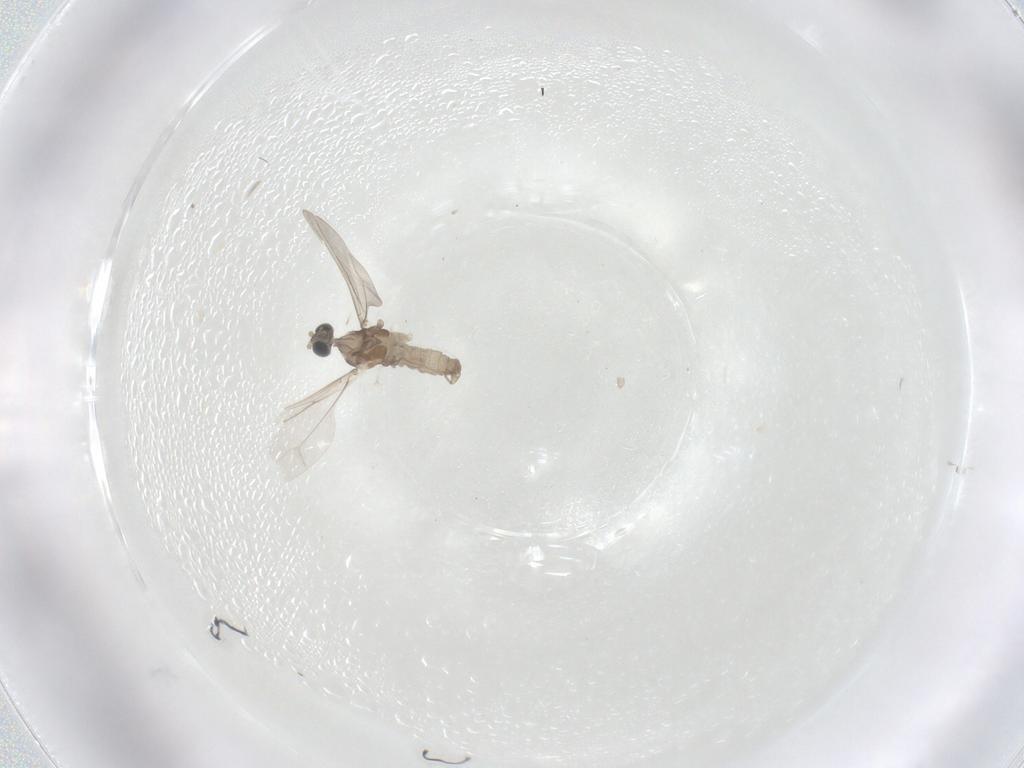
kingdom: Animalia
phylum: Arthropoda
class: Insecta
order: Diptera
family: Cecidomyiidae
